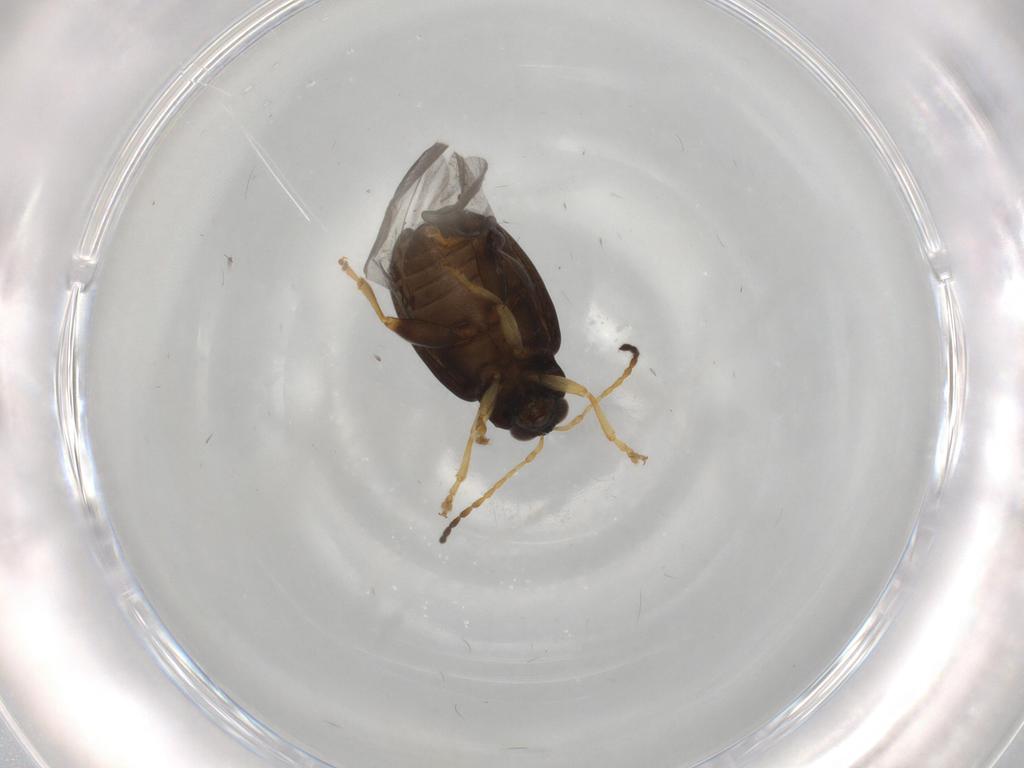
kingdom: Animalia
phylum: Arthropoda
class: Insecta
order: Coleoptera
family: Chrysomelidae
